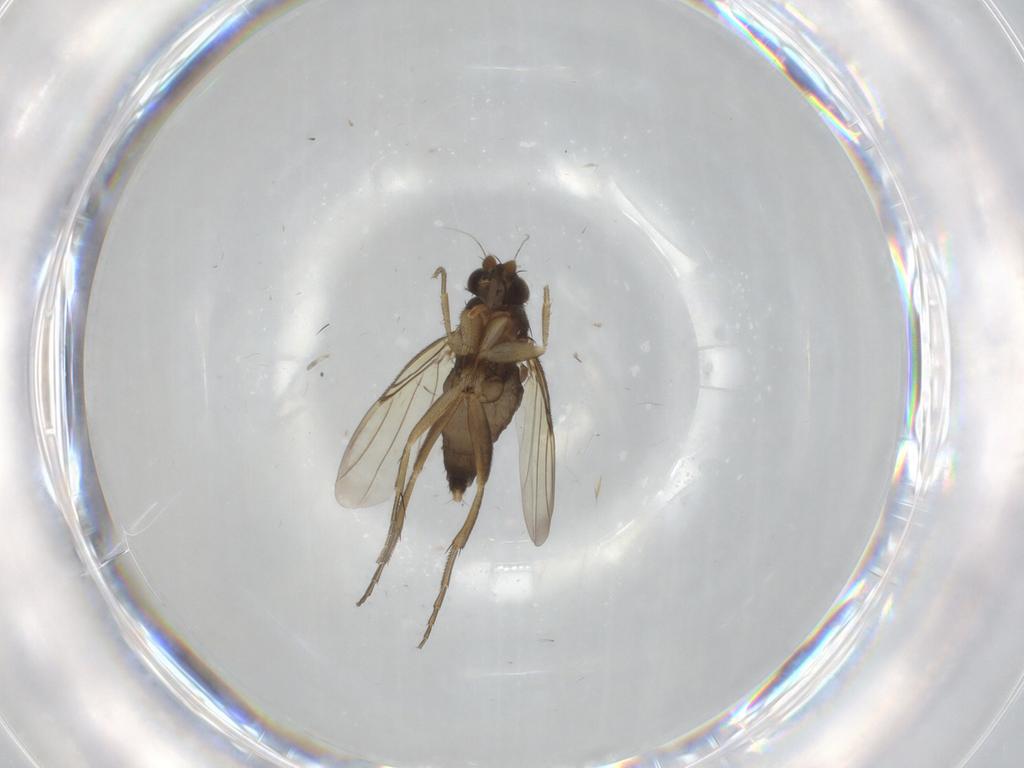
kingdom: Animalia
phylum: Arthropoda
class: Insecta
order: Diptera
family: Phoridae
